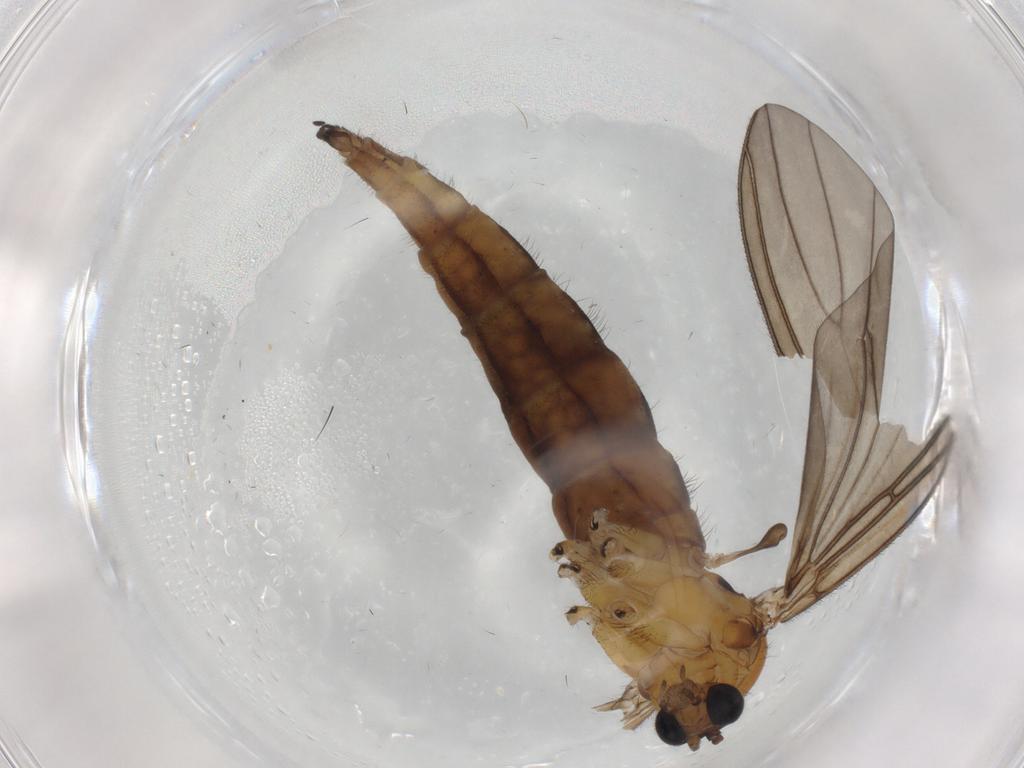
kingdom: Animalia
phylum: Arthropoda
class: Insecta
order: Diptera
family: Sciaridae
